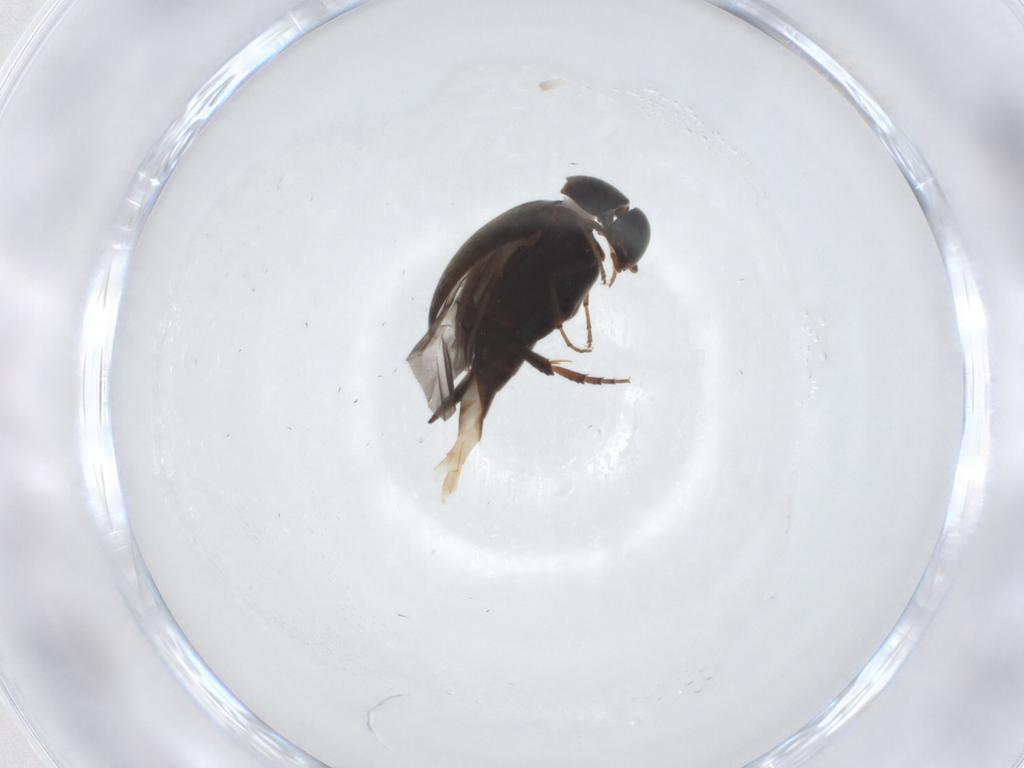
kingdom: Animalia
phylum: Arthropoda
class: Insecta
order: Coleoptera
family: Mordellidae
